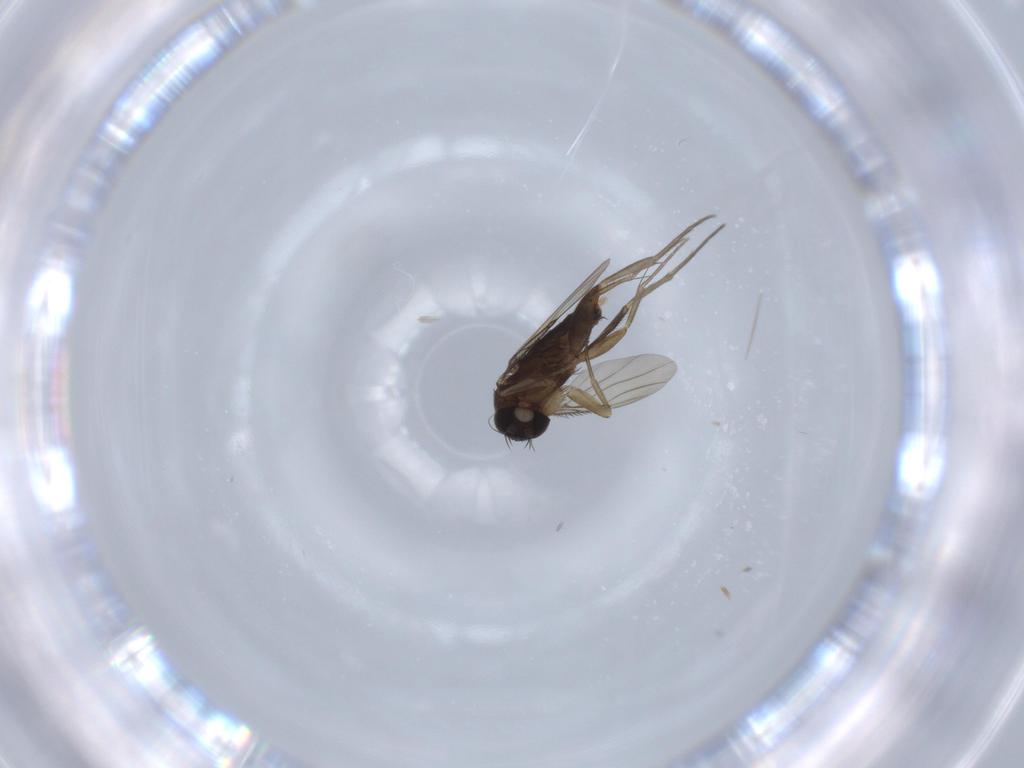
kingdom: Animalia
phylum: Arthropoda
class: Insecta
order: Diptera
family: Phoridae
